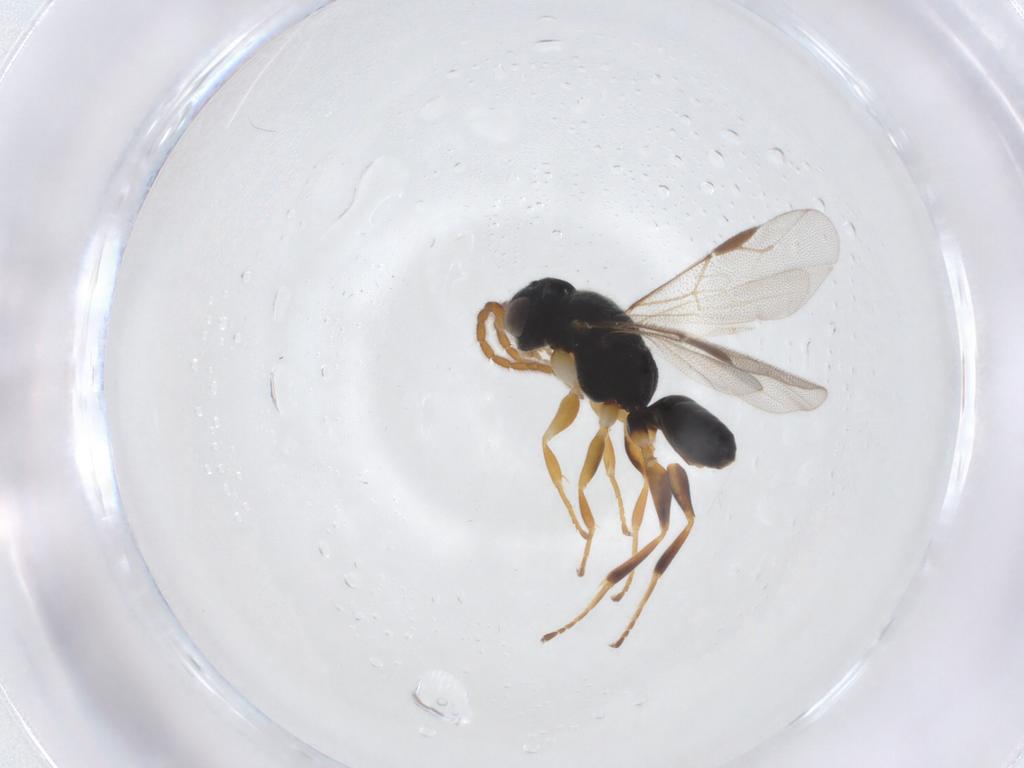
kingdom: Animalia
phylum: Arthropoda
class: Insecta
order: Hymenoptera
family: Dryinidae
